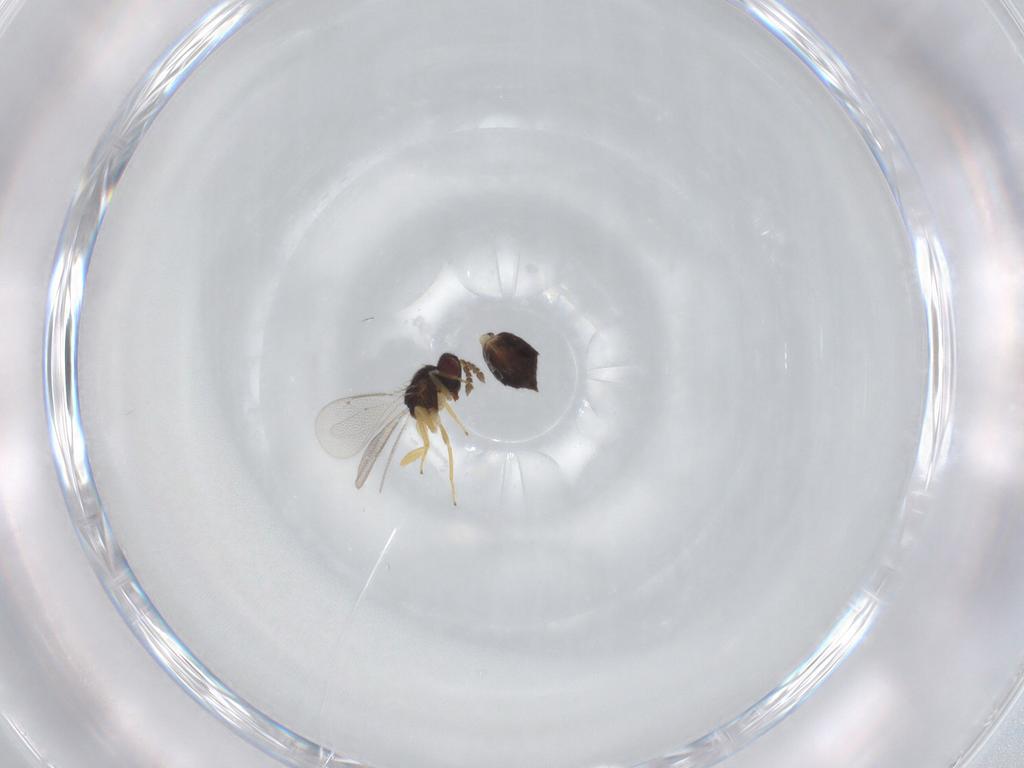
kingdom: Animalia
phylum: Arthropoda
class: Insecta
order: Hymenoptera
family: Eulophidae
